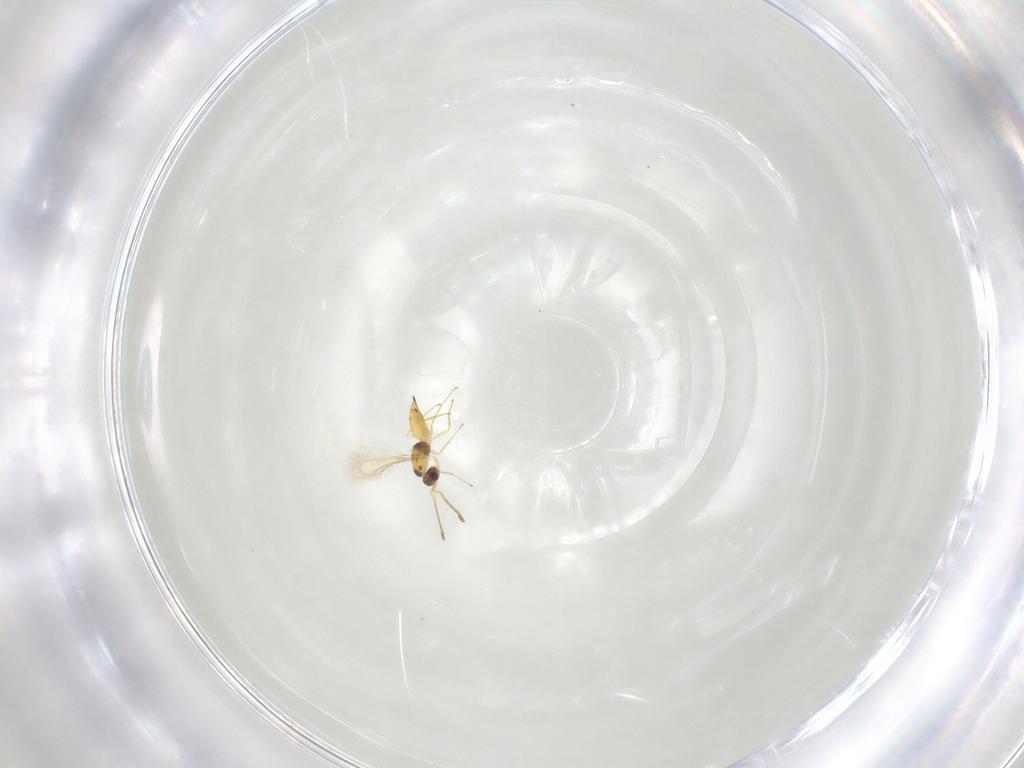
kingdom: Animalia
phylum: Arthropoda
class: Insecta
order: Hymenoptera
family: Mymaridae
